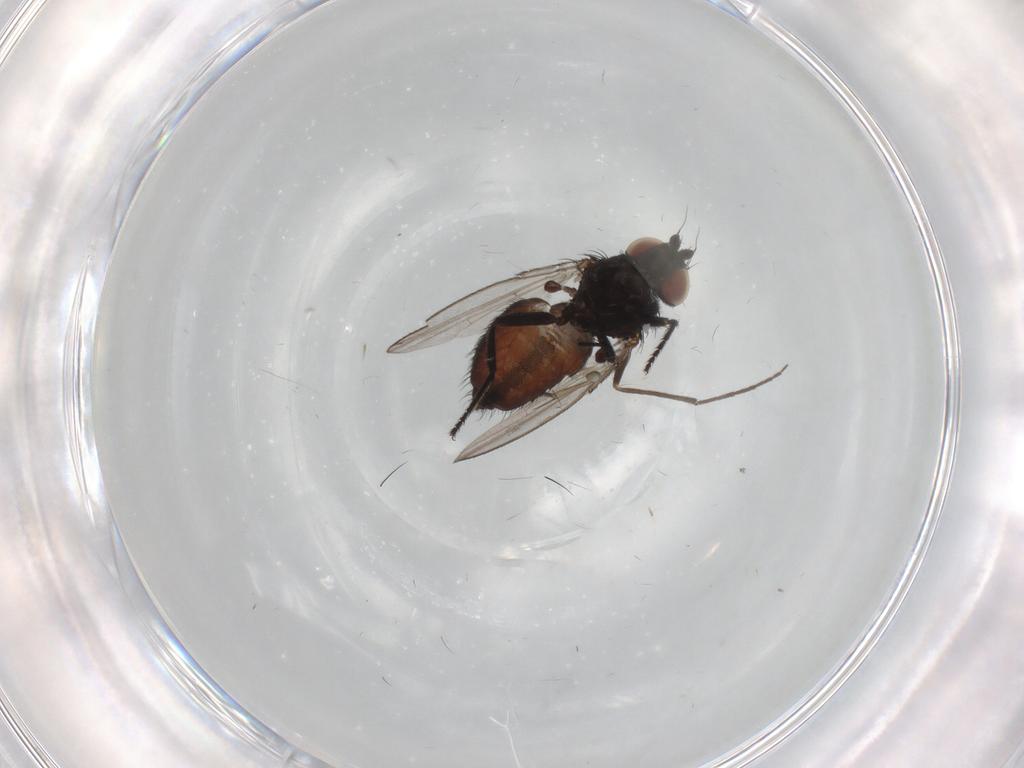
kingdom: Animalia
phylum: Arthropoda
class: Insecta
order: Diptera
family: Milichiidae
